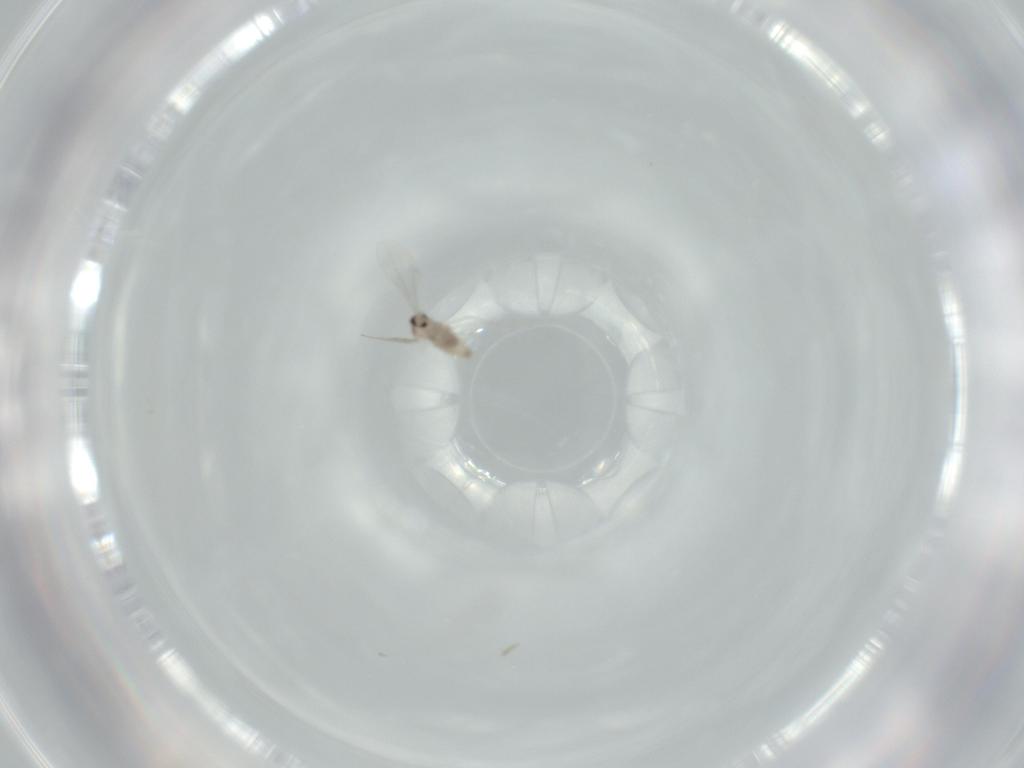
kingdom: Animalia
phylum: Arthropoda
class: Insecta
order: Diptera
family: Cecidomyiidae
